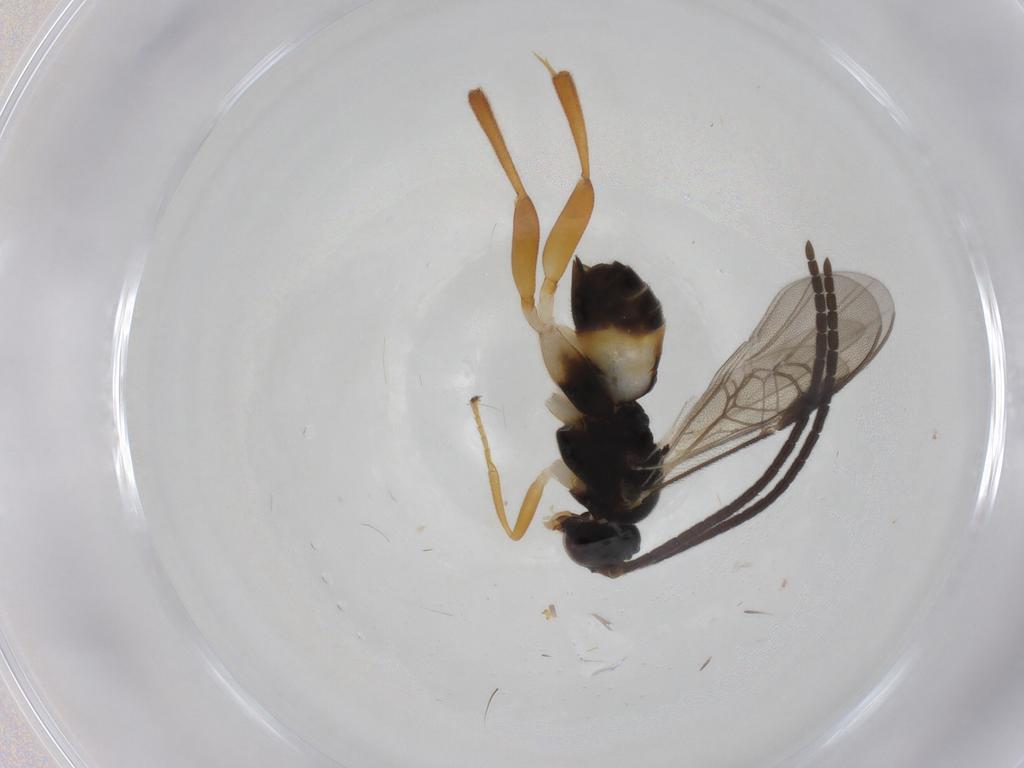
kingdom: Animalia
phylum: Arthropoda
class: Insecta
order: Hymenoptera
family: Braconidae
